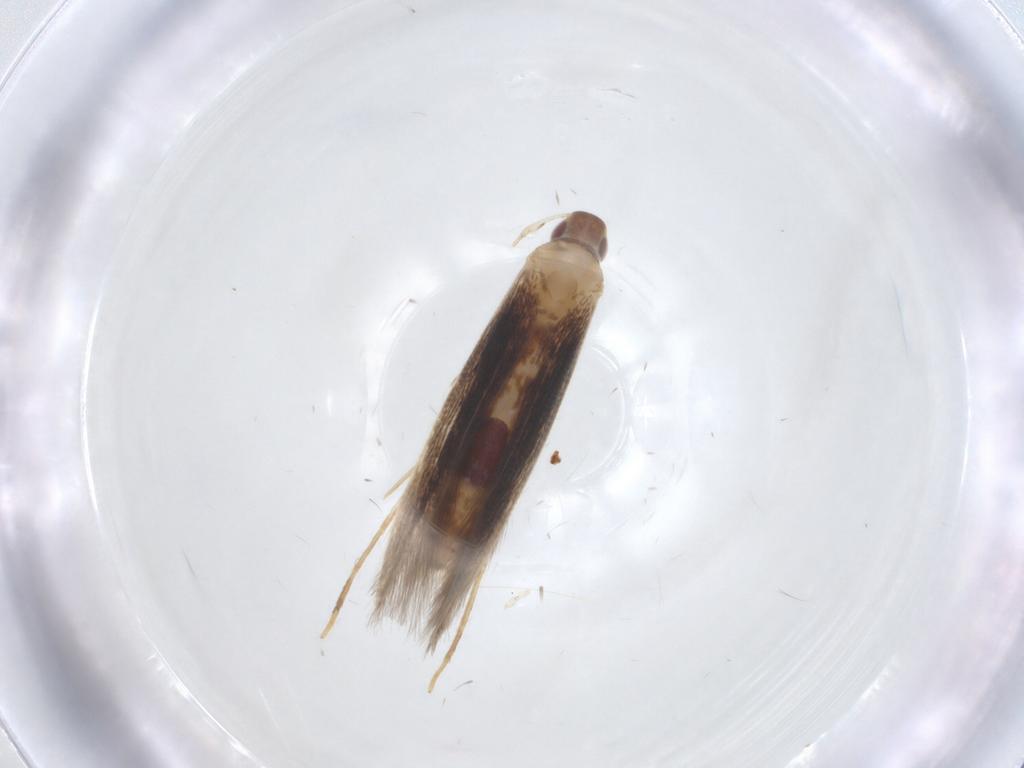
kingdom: Animalia
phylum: Arthropoda
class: Insecta
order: Lepidoptera
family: Cosmopterigidae
